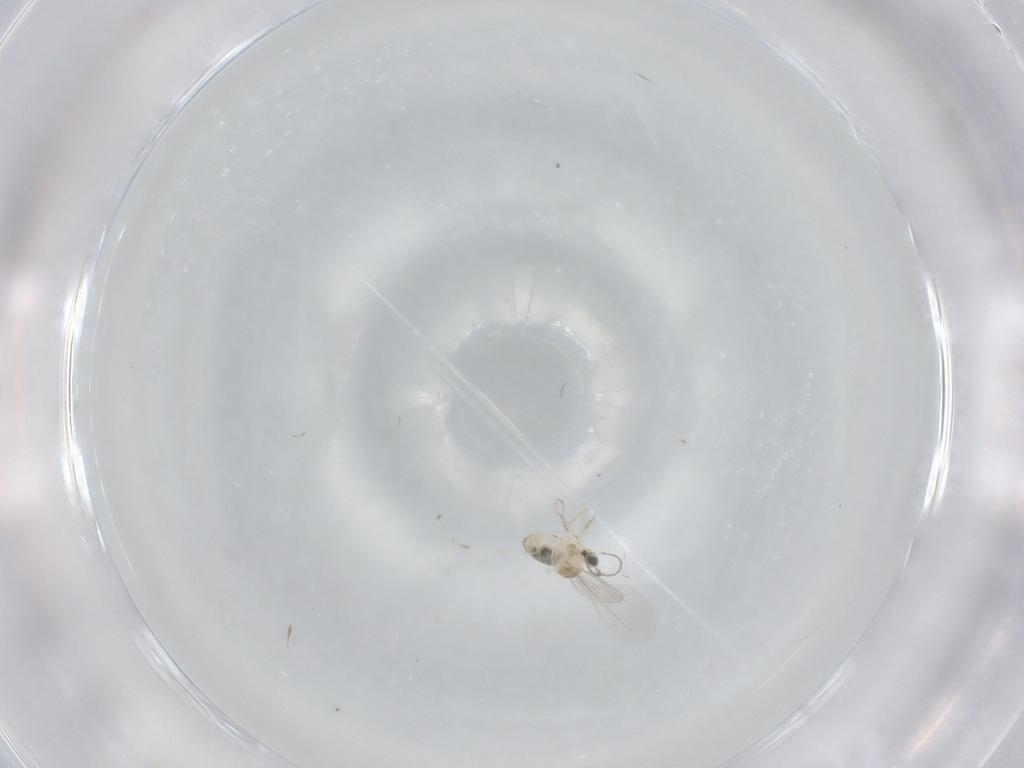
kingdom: Animalia
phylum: Arthropoda
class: Insecta
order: Diptera
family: Cecidomyiidae
